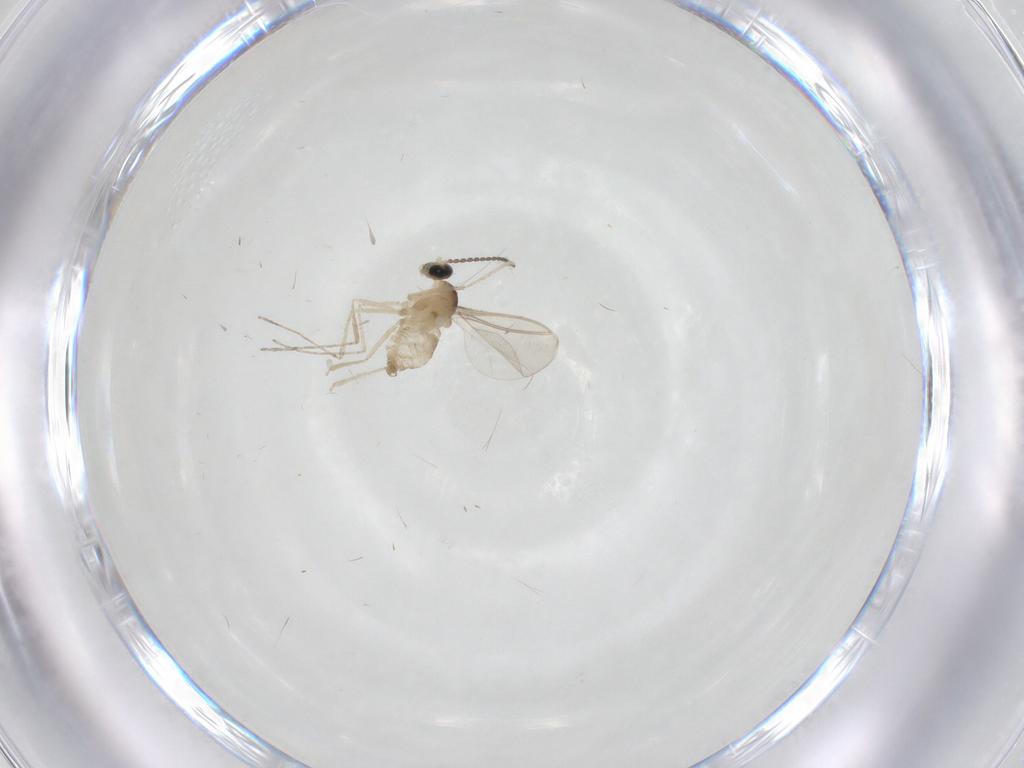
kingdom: Animalia
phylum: Arthropoda
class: Insecta
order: Diptera
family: Cecidomyiidae
